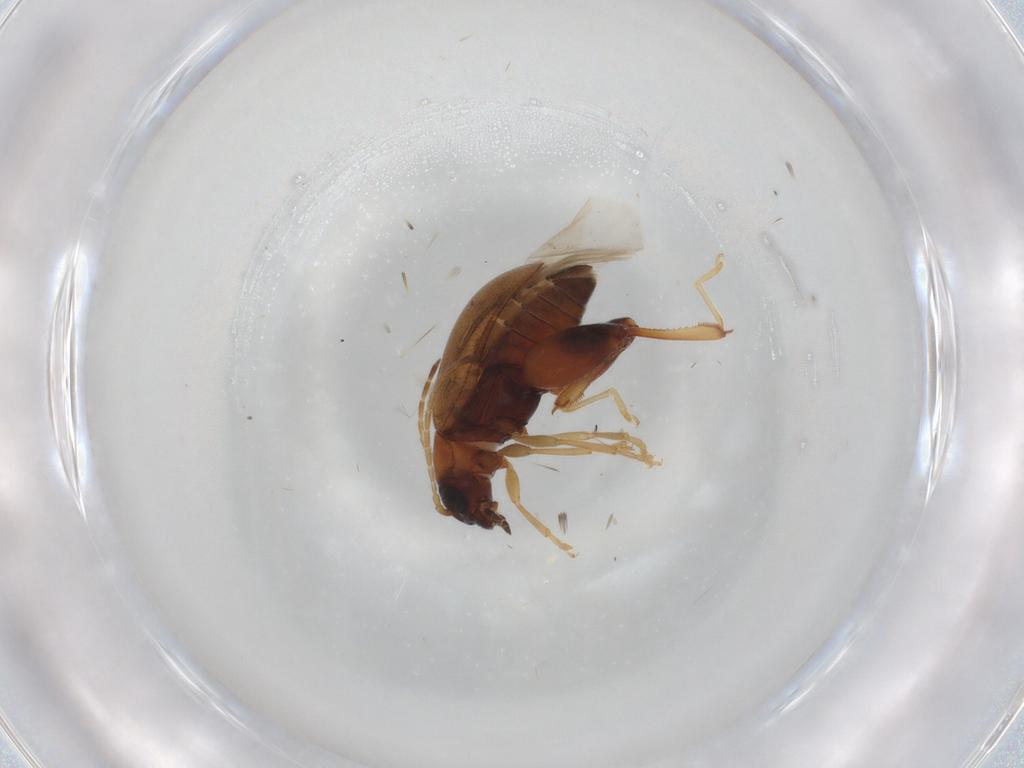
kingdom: Animalia
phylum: Arthropoda
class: Insecta
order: Coleoptera
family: Chrysomelidae
